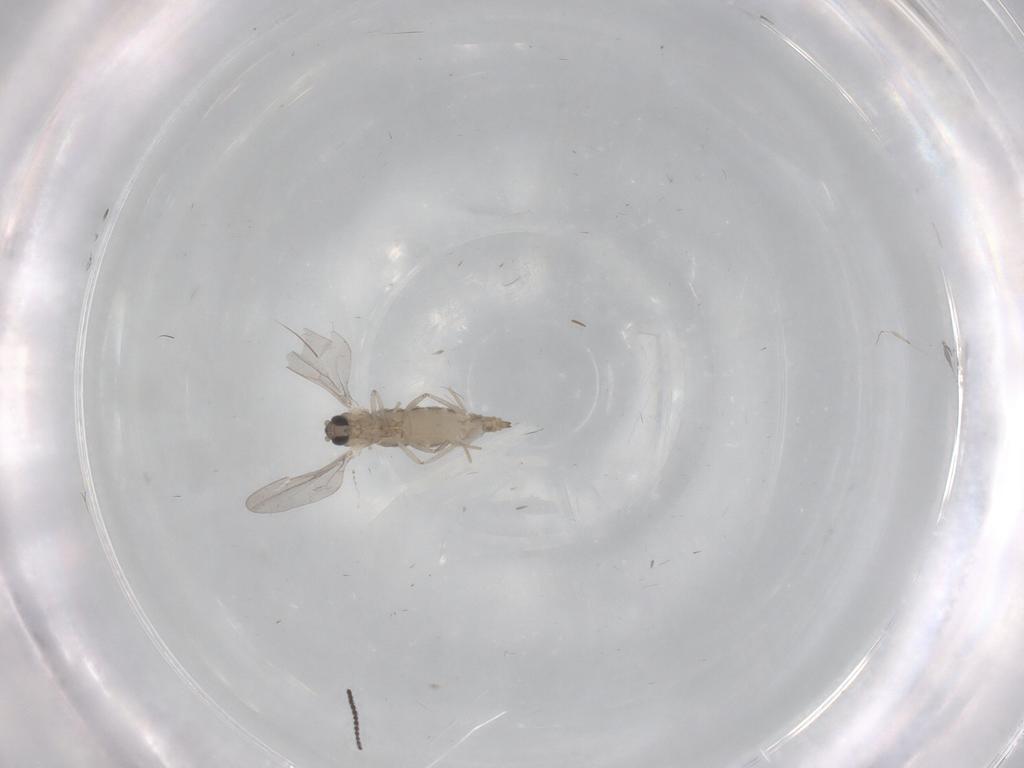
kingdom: Animalia
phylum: Arthropoda
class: Insecta
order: Diptera
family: Cecidomyiidae
